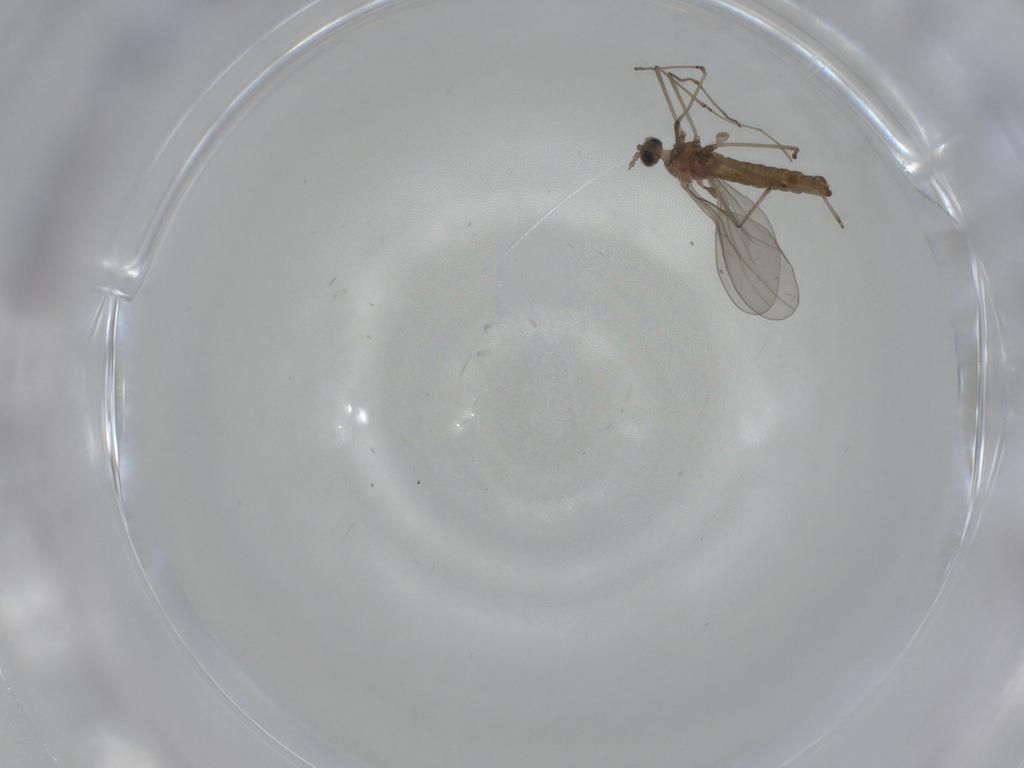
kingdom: Animalia
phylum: Arthropoda
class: Insecta
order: Diptera
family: Cecidomyiidae
